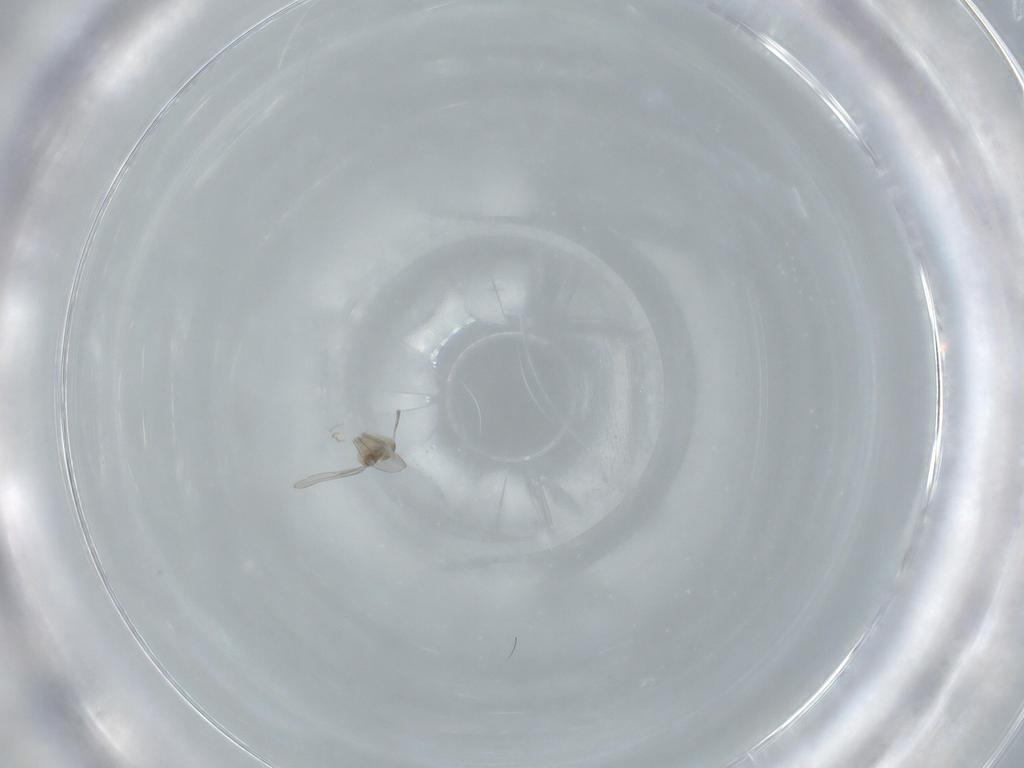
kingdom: Animalia
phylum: Arthropoda
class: Insecta
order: Diptera
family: Cecidomyiidae
